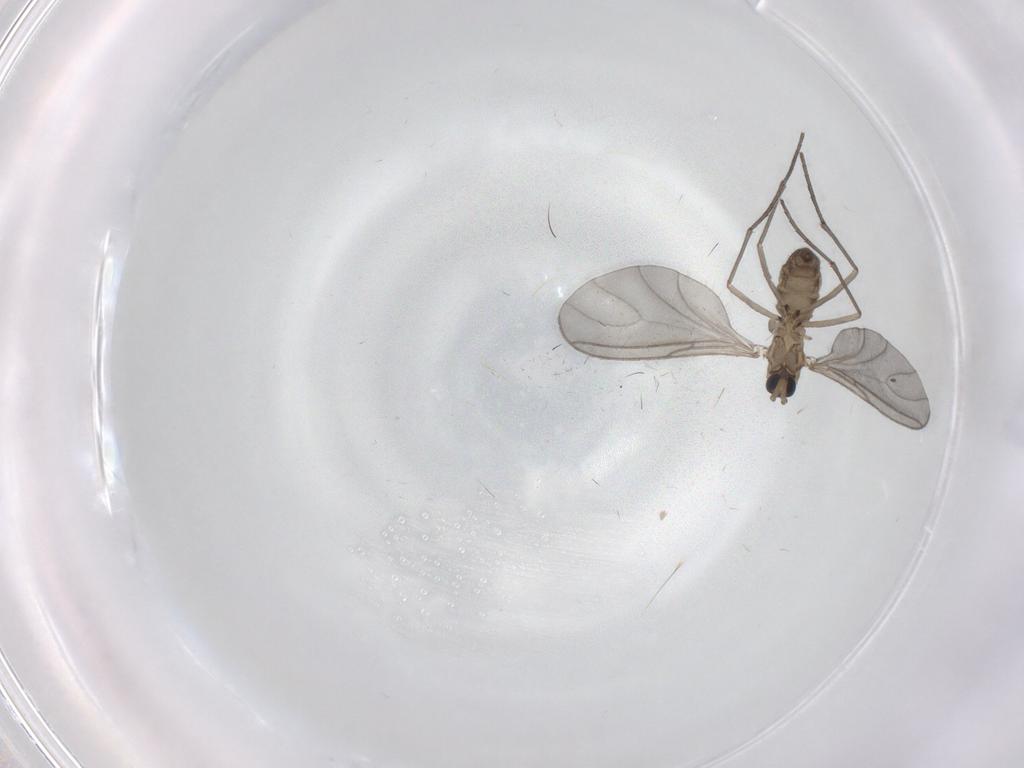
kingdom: Animalia
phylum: Arthropoda
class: Insecta
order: Diptera
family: Sciaridae
